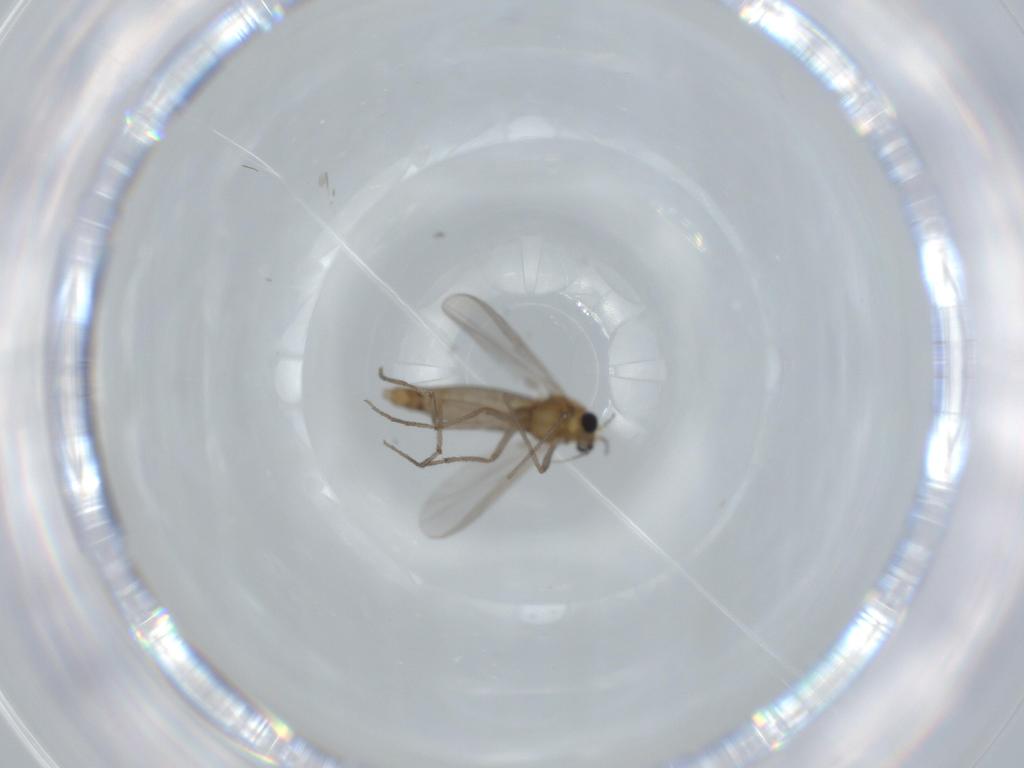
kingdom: Animalia
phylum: Arthropoda
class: Insecta
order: Diptera
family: Chironomidae
